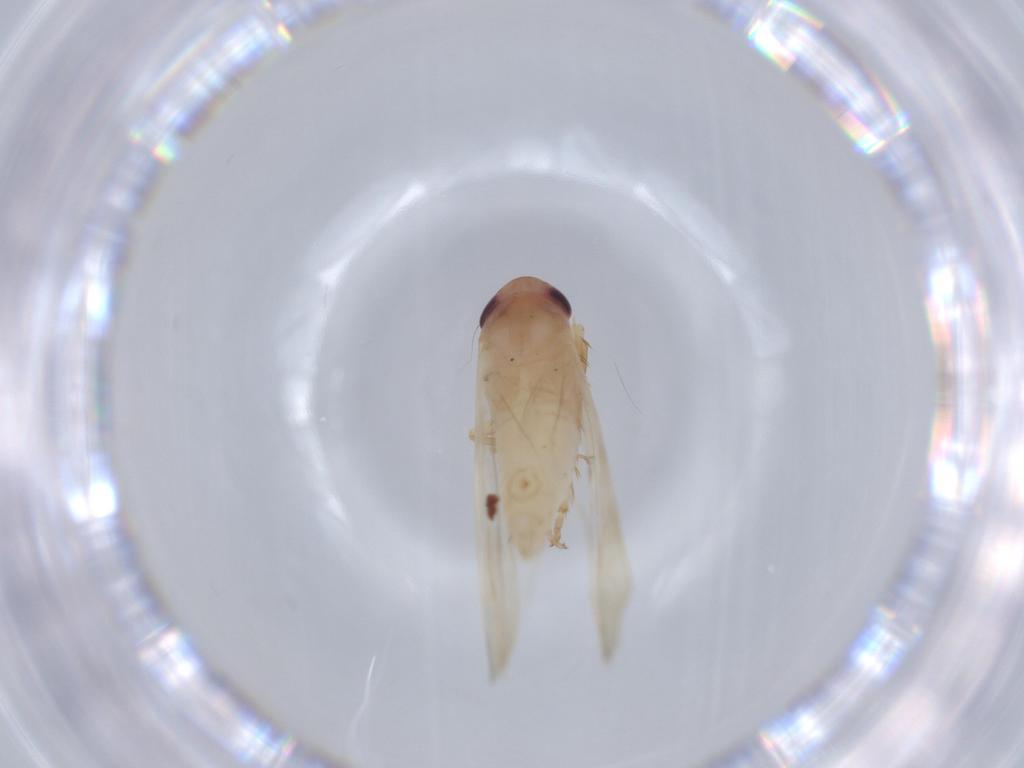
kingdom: Animalia
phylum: Arthropoda
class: Insecta
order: Hemiptera
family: Cicadellidae
